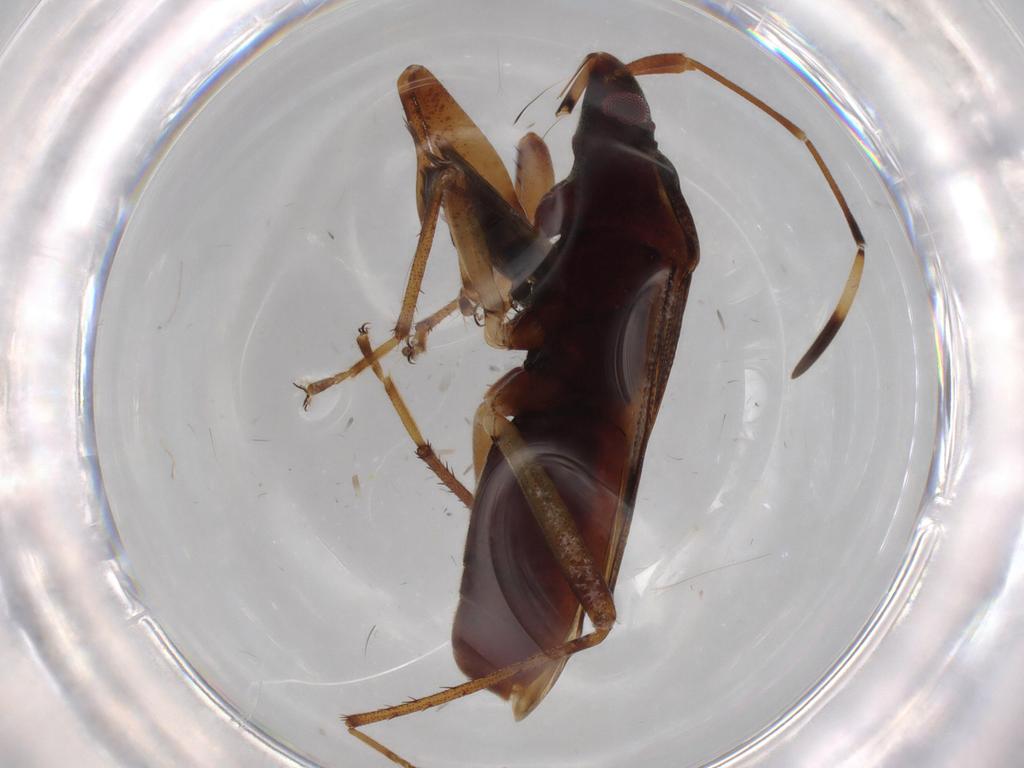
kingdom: Animalia
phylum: Arthropoda
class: Insecta
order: Hemiptera
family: Rhyparochromidae
